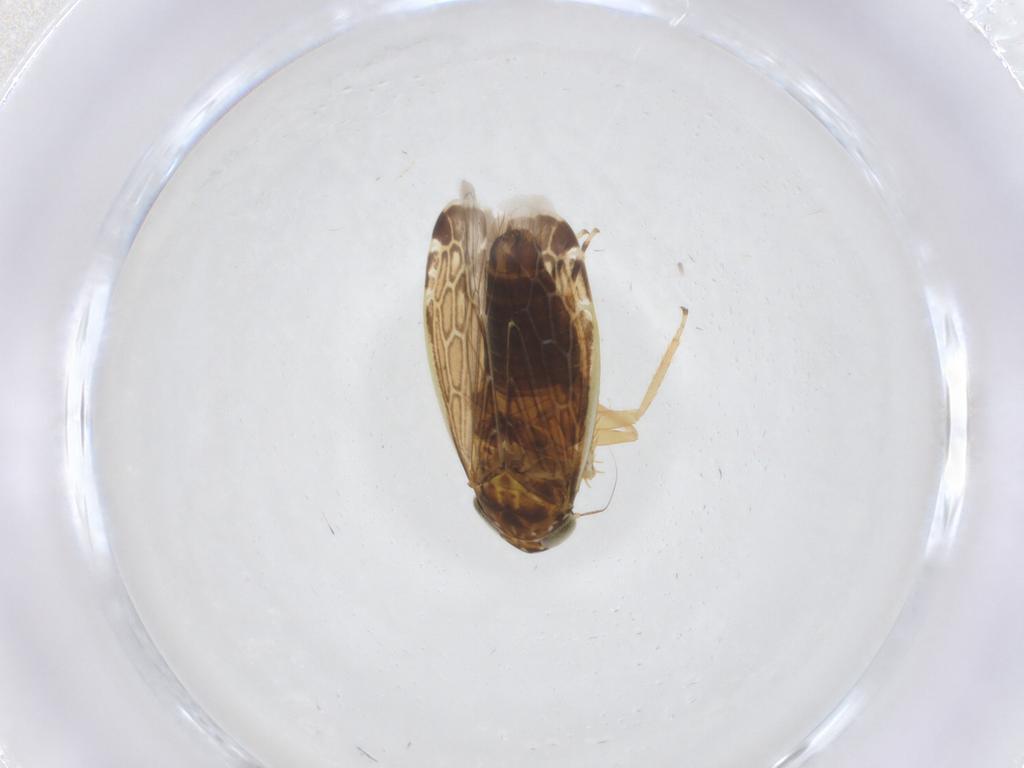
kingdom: Animalia
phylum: Arthropoda
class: Insecta
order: Hemiptera
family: Cicadellidae
